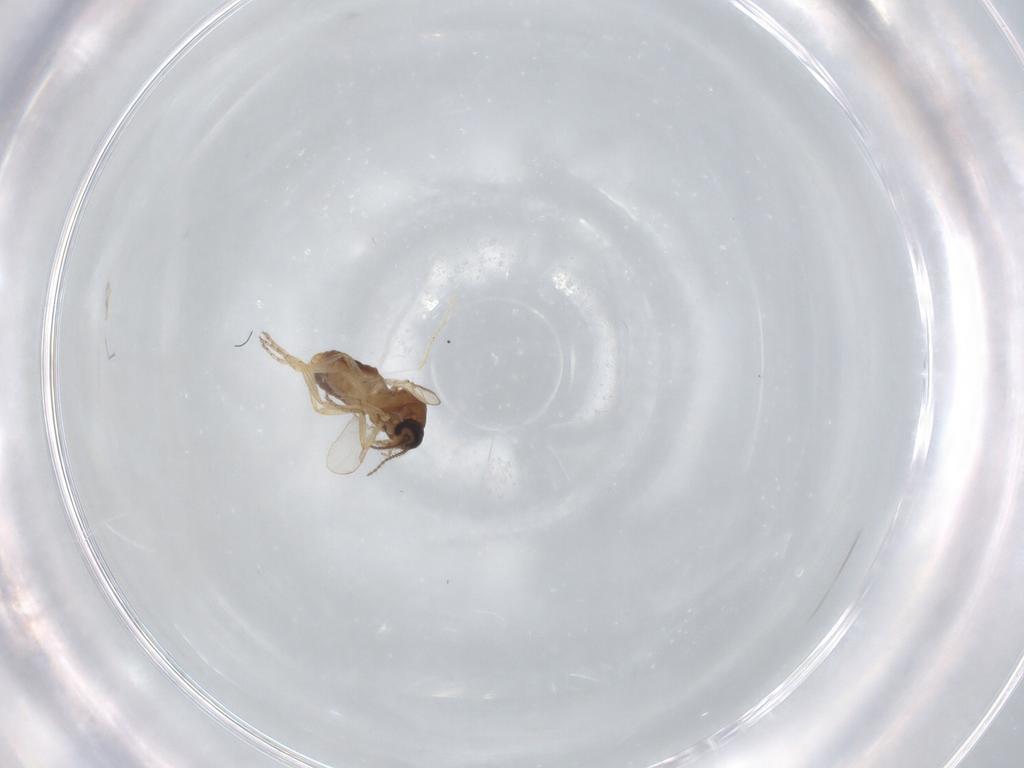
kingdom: Animalia
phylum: Arthropoda
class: Insecta
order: Diptera
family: Ceratopogonidae
